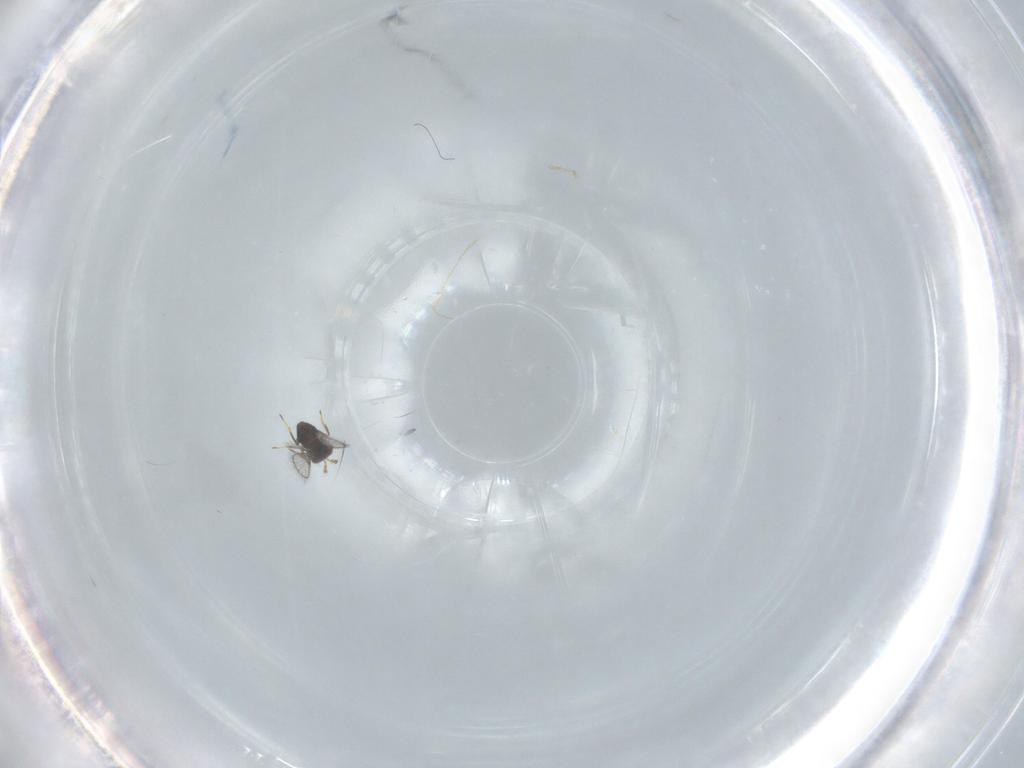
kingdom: Animalia
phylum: Arthropoda
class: Insecta
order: Diptera
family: Chironomidae
